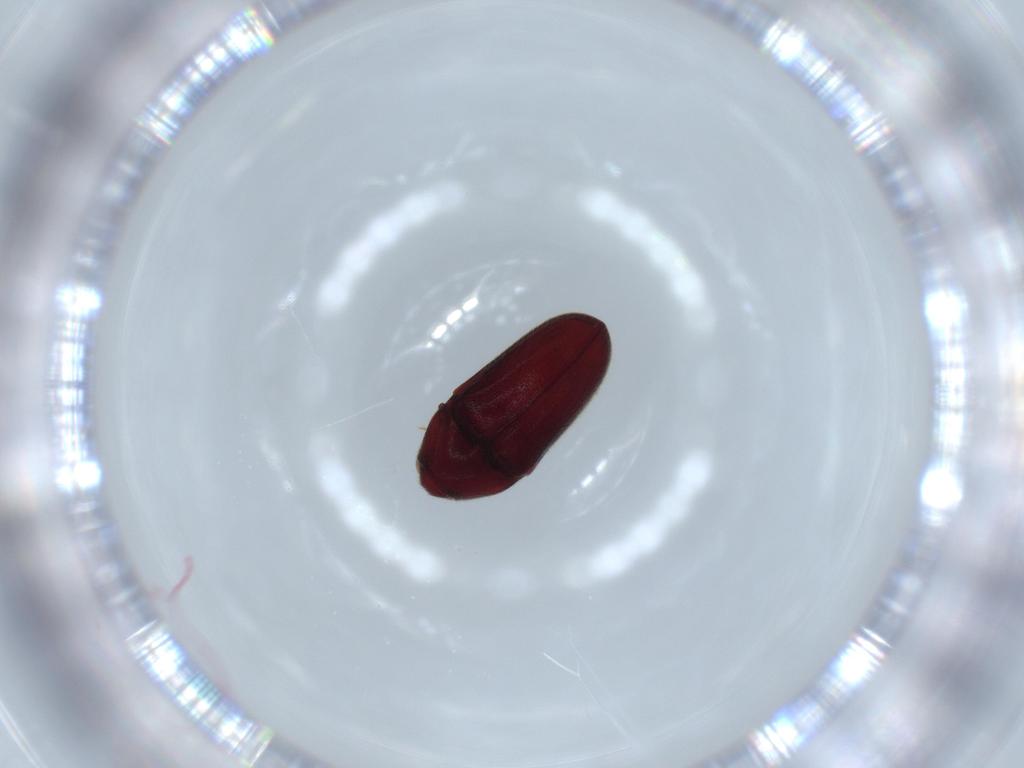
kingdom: Animalia
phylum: Arthropoda
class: Insecta
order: Coleoptera
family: Throscidae
